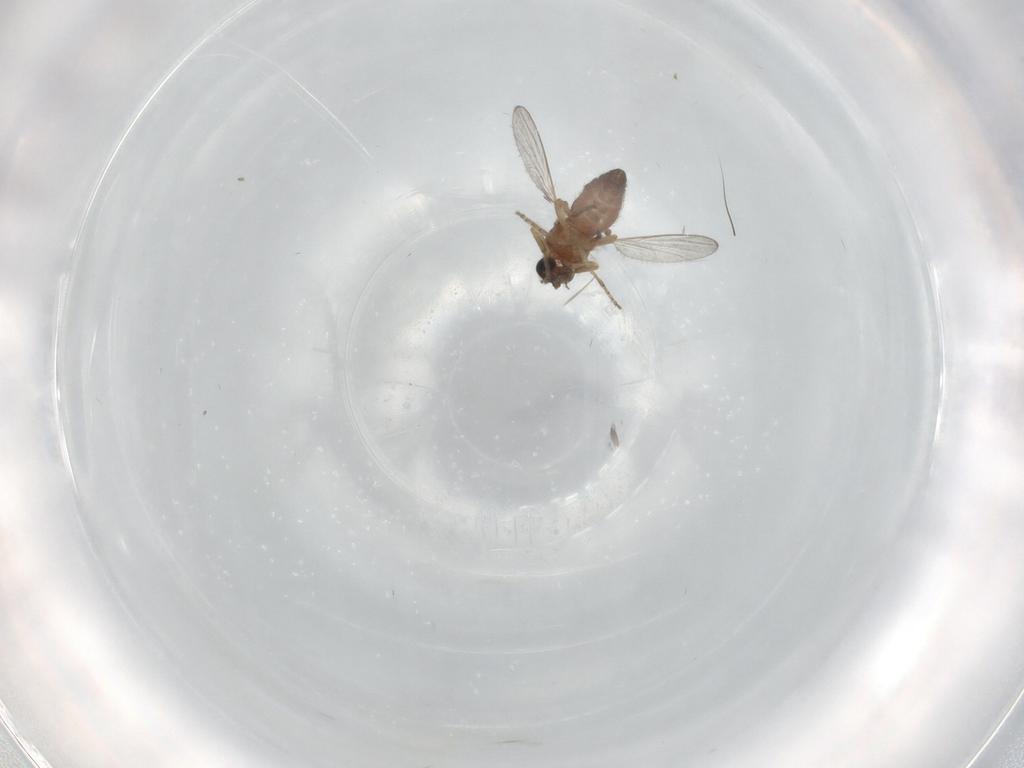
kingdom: Animalia
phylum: Arthropoda
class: Insecta
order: Diptera
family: Ceratopogonidae
